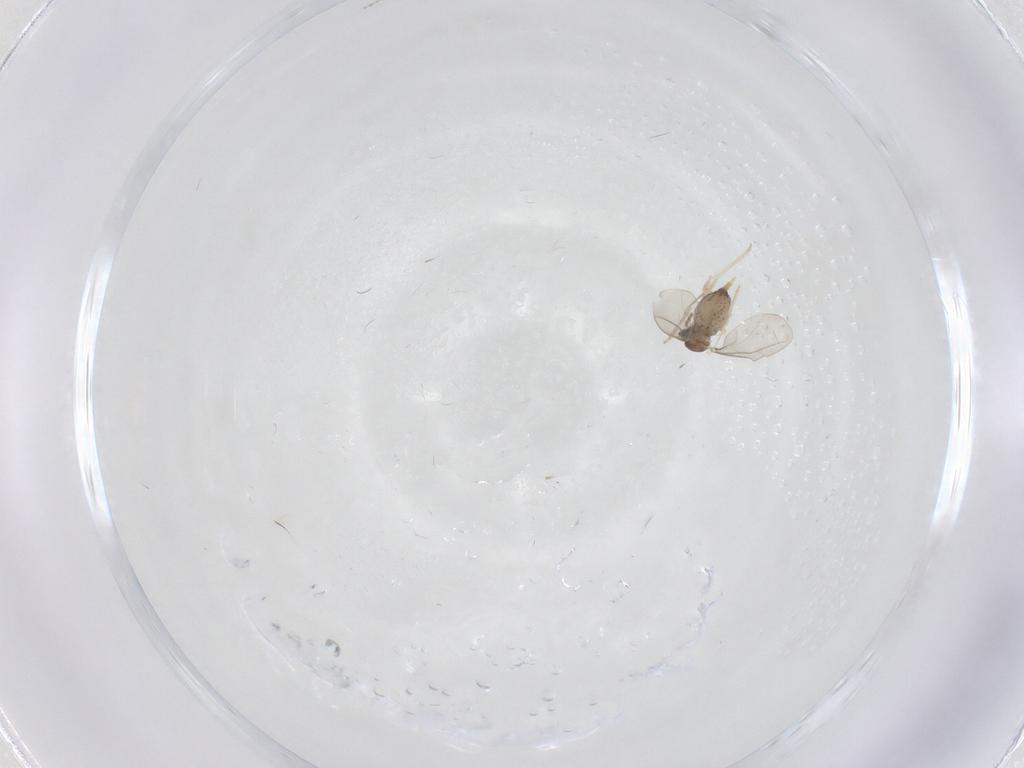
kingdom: Animalia
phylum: Arthropoda
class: Insecta
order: Diptera
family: Cecidomyiidae
